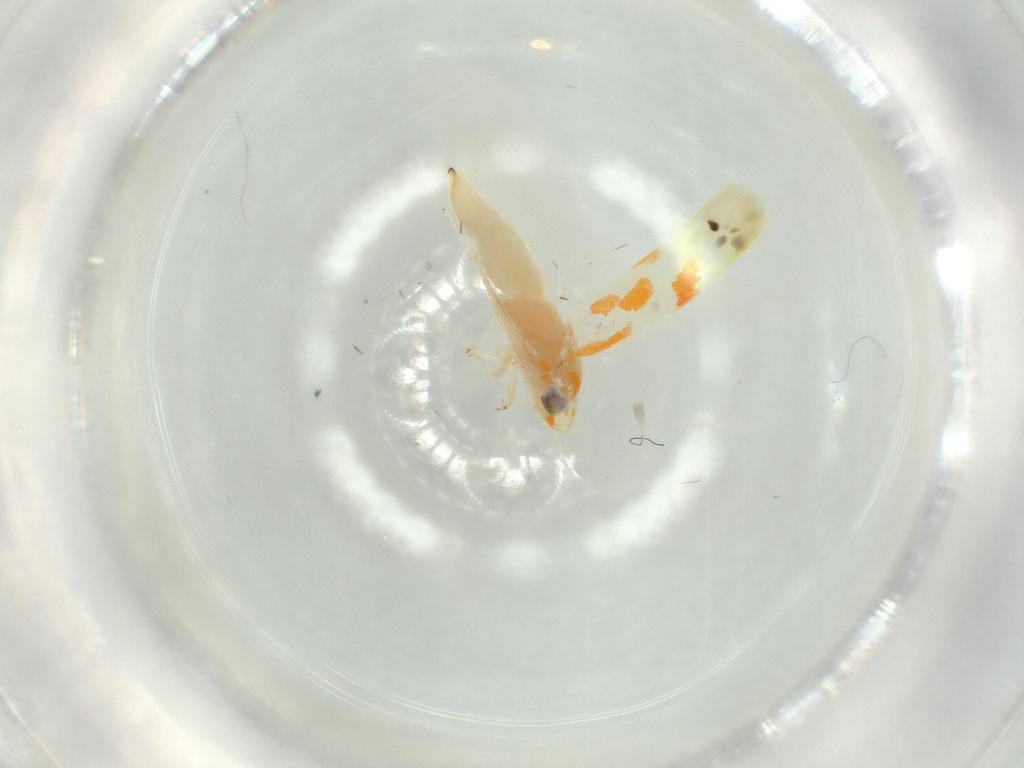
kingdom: Animalia
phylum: Arthropoda
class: Insecta
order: Hemiptera
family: Cicadellidae
